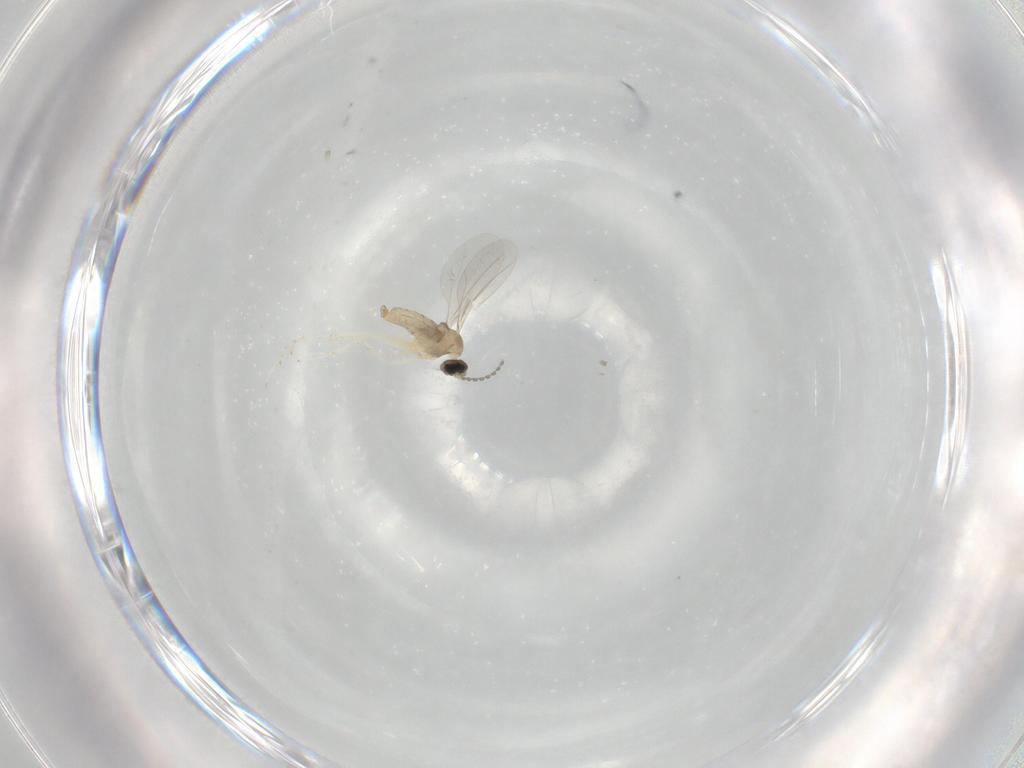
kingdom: Animalia
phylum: Arthropoda
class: Insecta
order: Diptera
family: Cecidomyiidae
